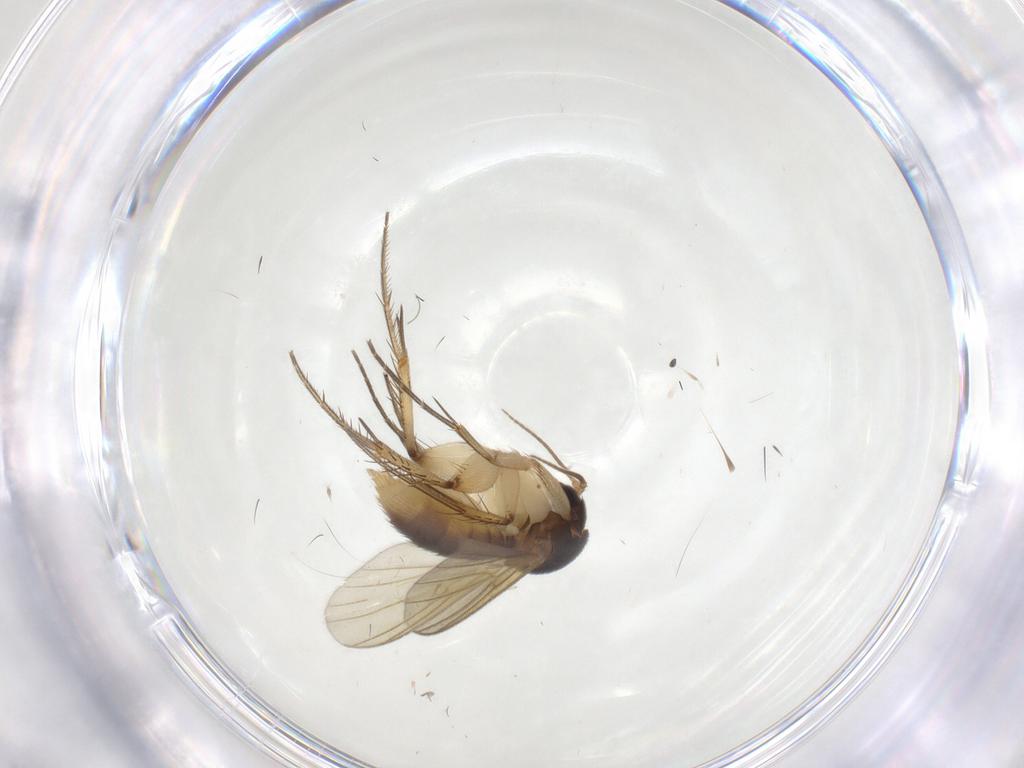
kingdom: Animalia
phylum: Arthropoda
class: Insecta
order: Diptera
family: Mycetophilidae
